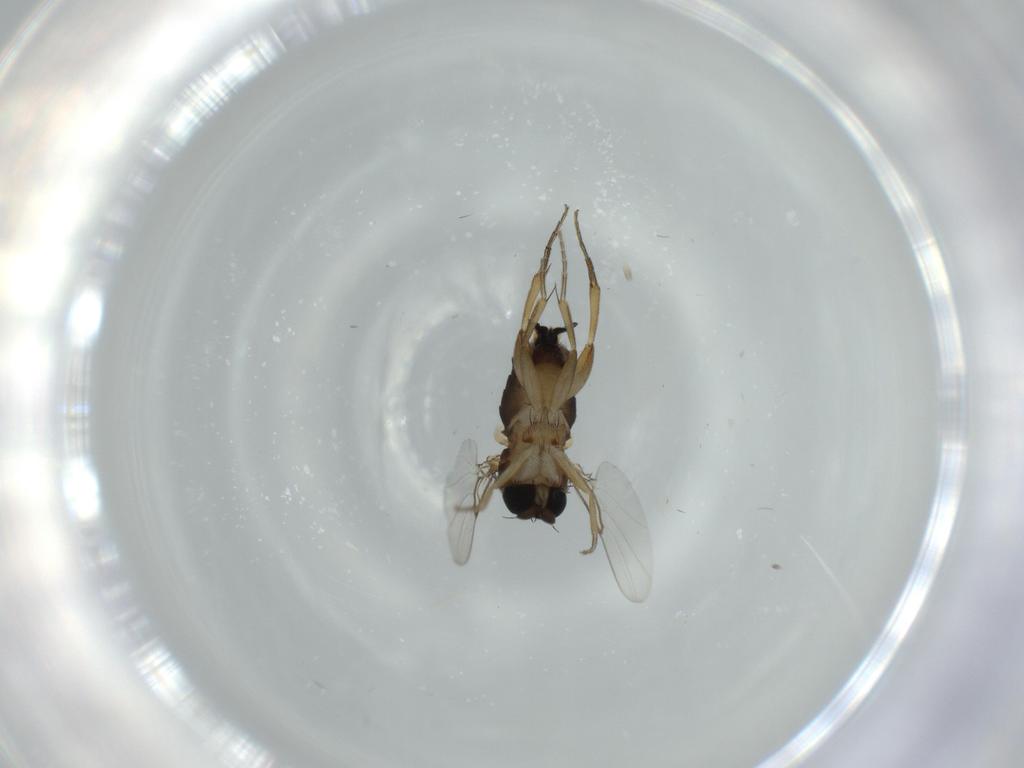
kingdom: Animalia
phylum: Arthropoda
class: Insecta
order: Diptera
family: Phoridae
